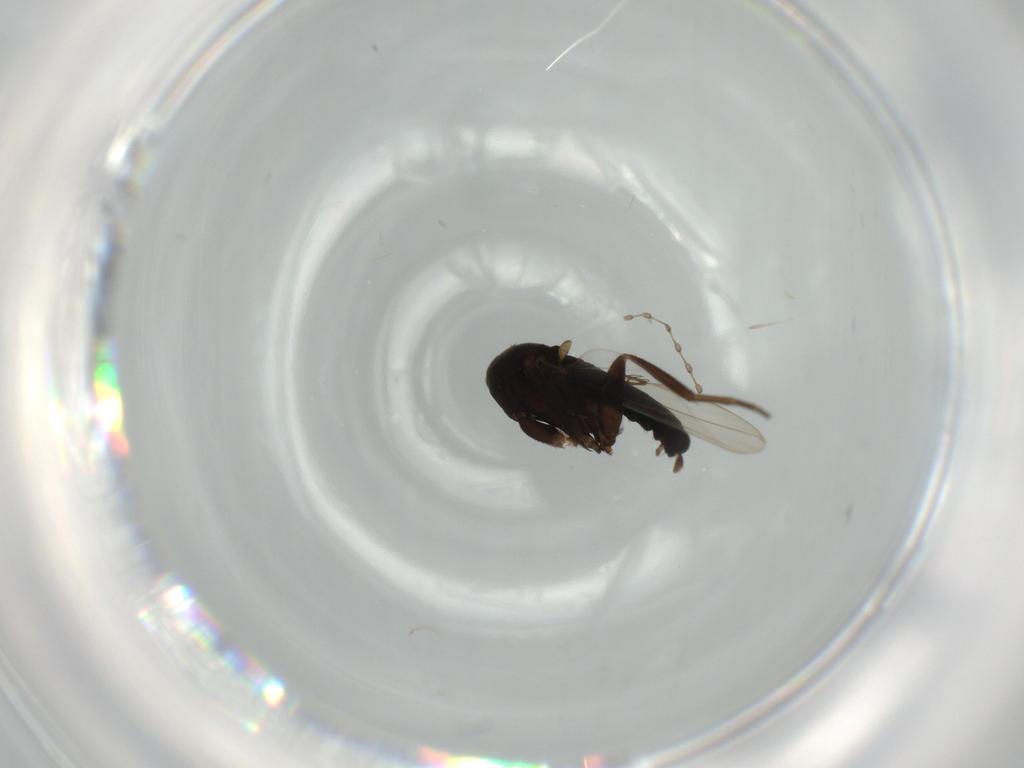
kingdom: Animalia
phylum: Arthropoda
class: Insecta
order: Diptera
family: Phoridae
